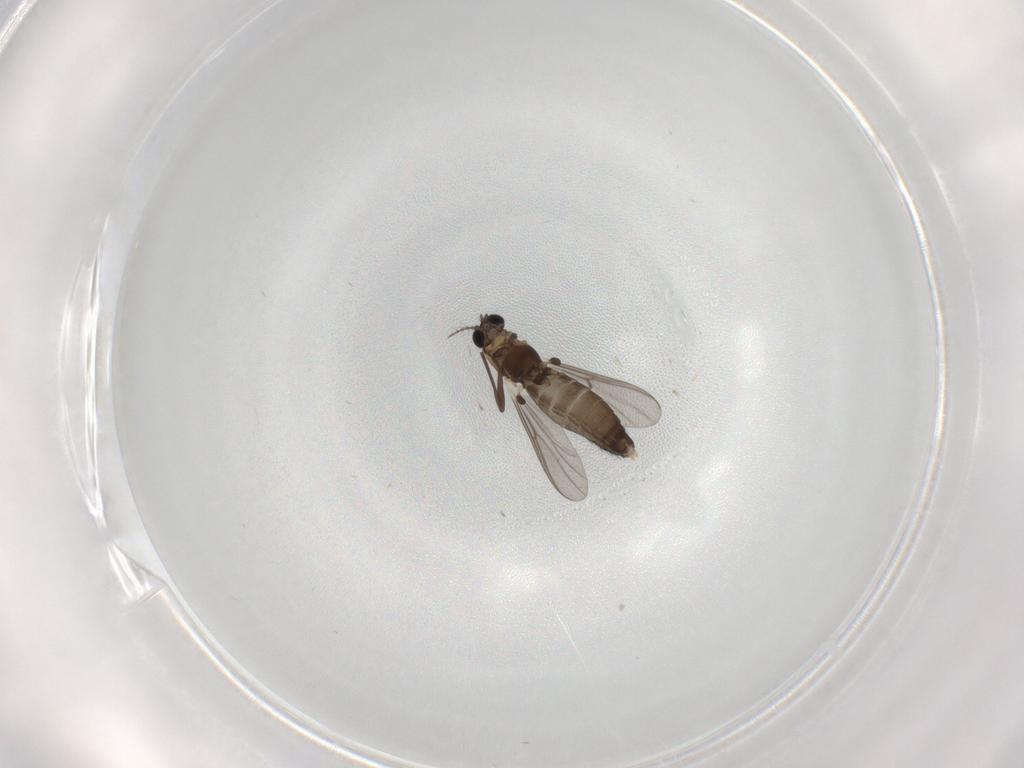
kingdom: Animalia
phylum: Arthropoda
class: Insecta
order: Diptera
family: Chironomidae
